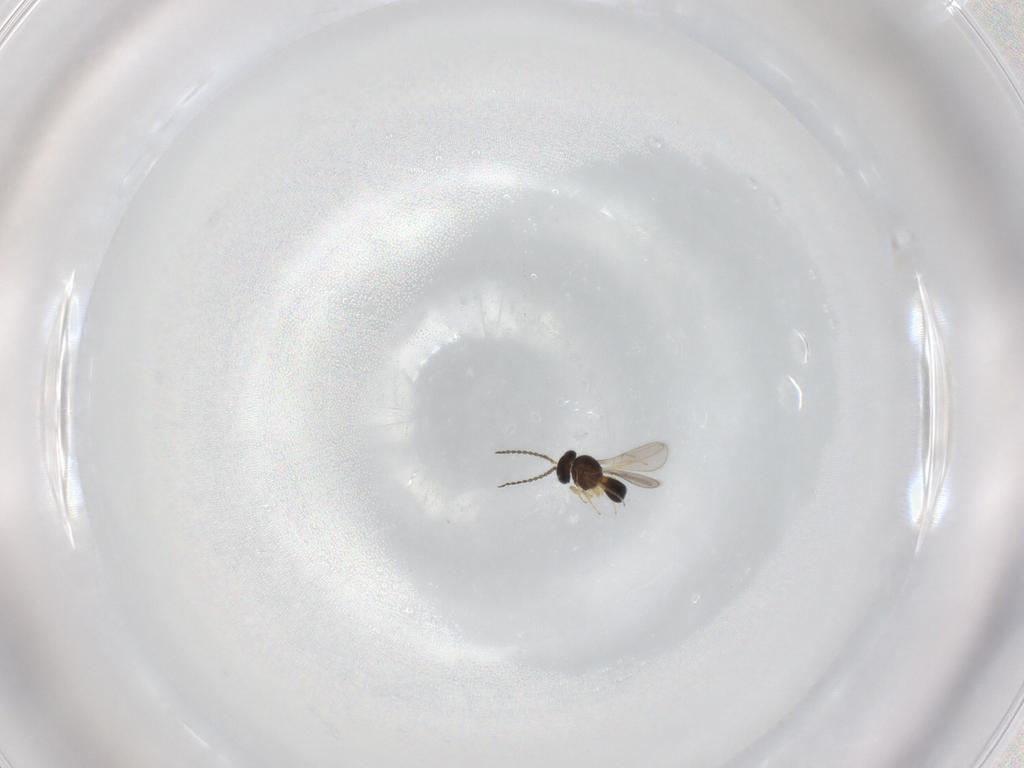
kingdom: Animalia
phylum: Arthropoda
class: Insecta
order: Hymenoptera
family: Scelionidae
